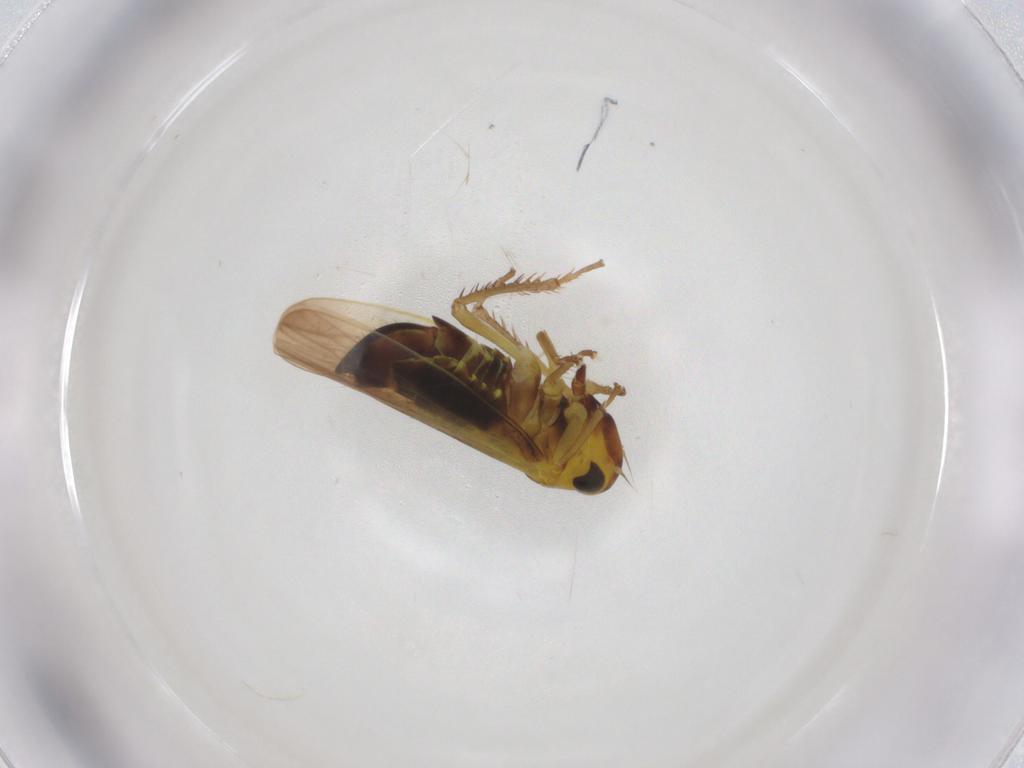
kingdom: Animalia
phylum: Arthropoda
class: Insecta
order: Hemiptera
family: Cicadellidae
